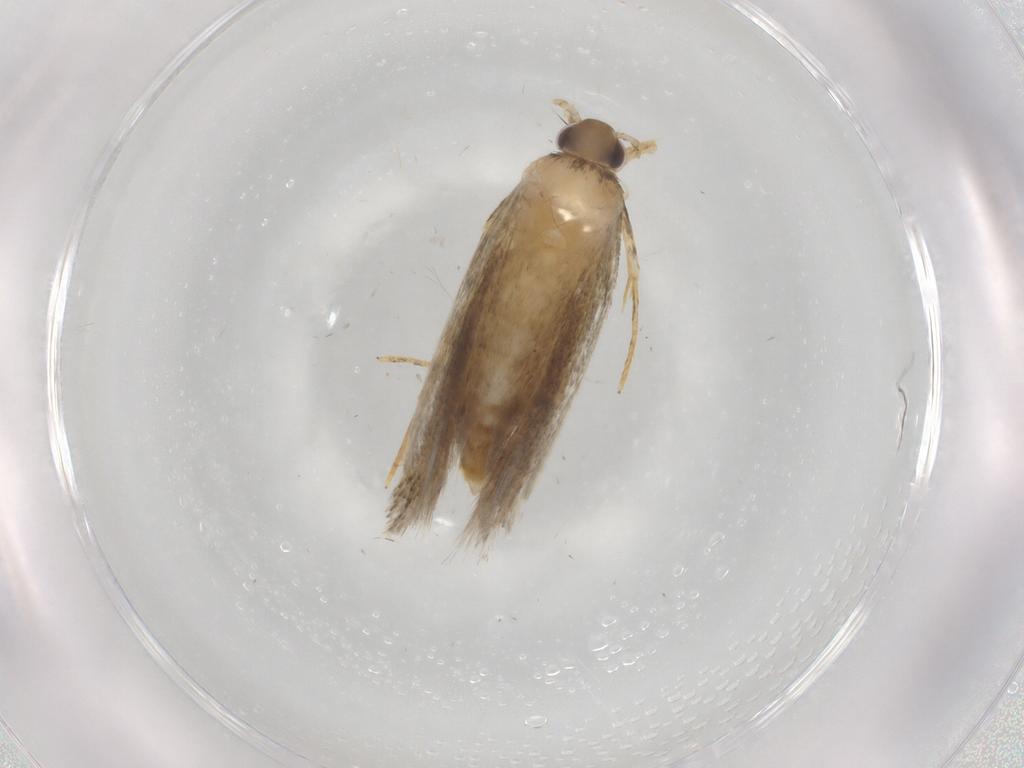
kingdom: Animalia
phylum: Arthropoda
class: Insecta
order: Lepidoptera
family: Autostichidae
